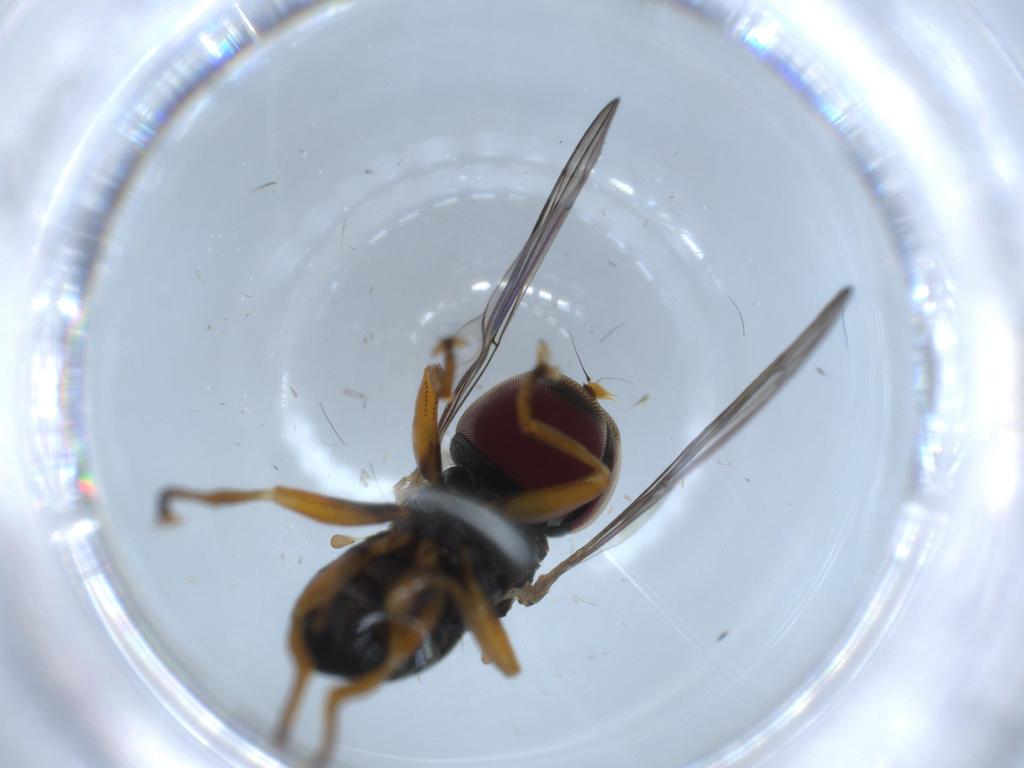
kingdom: Animalia
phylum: Arthropoda
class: Insecta
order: Diptera
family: Pipunculidae
